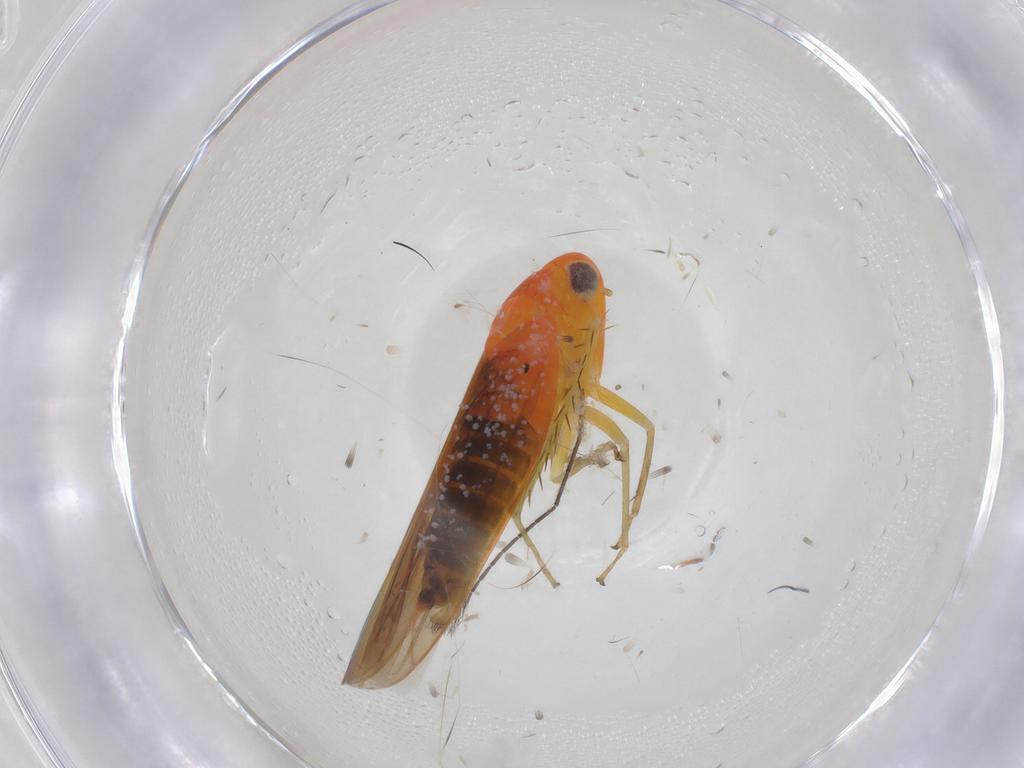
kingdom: Animalia
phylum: Arthropoda
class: Insecta
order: Hemiptera
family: Cicadellidae
